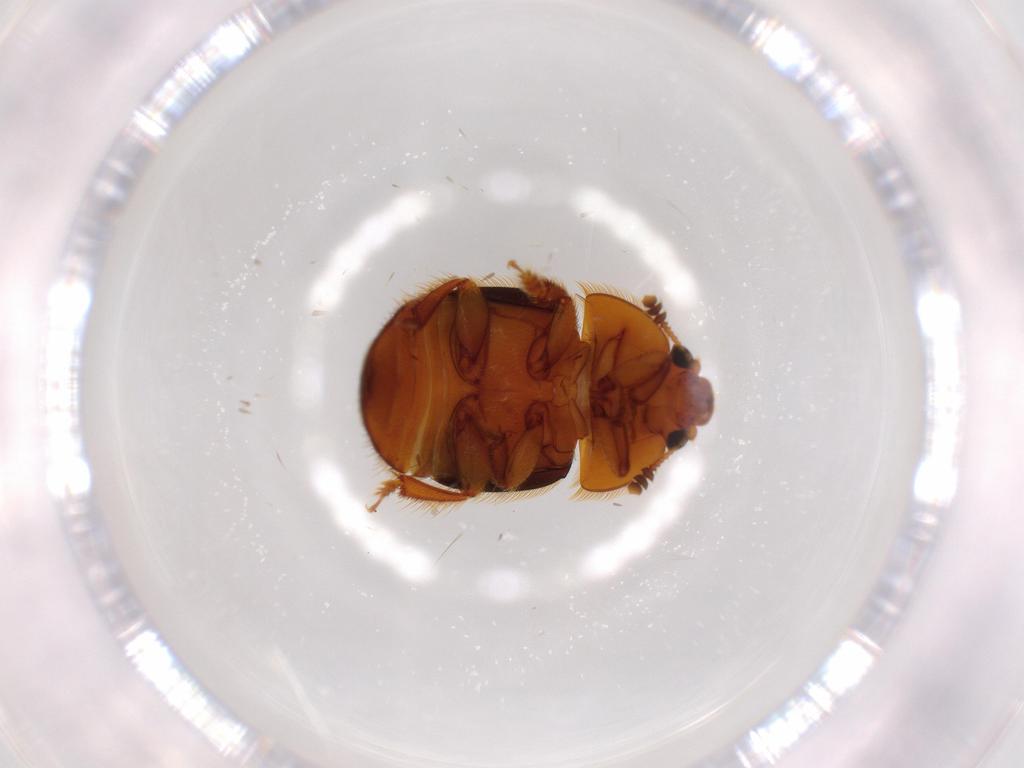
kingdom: Animalia
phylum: Arthropoda
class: Insecta
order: Coleoptera
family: Nitidulidae
